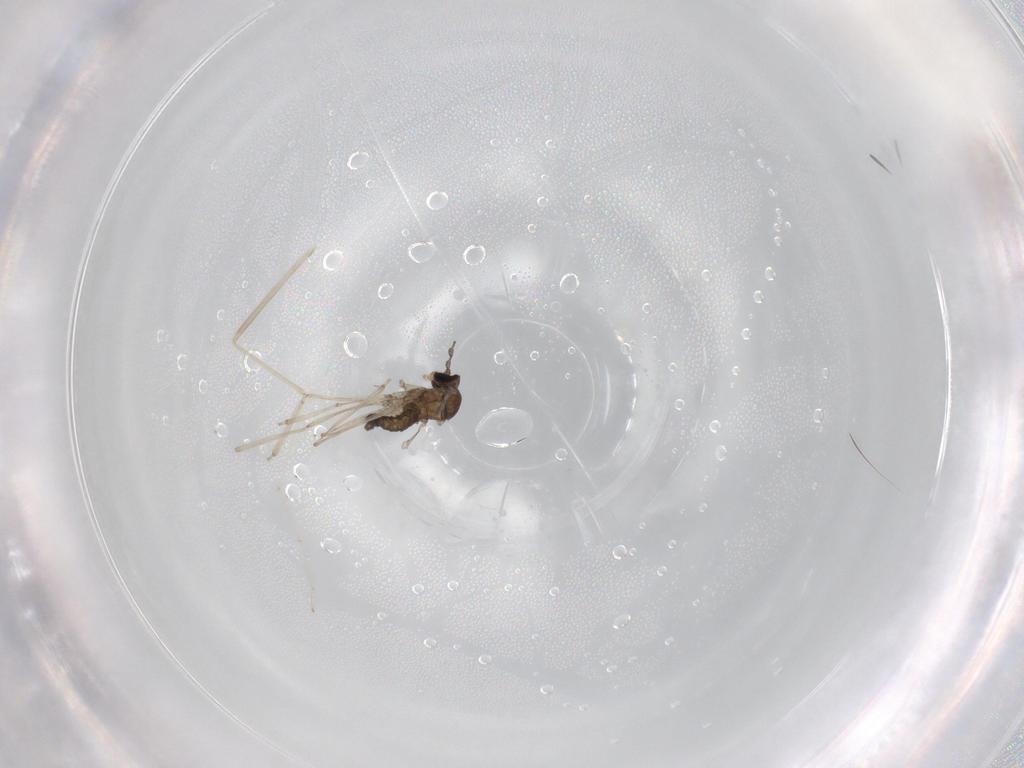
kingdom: Animalia
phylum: Arthropoda
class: Insecta
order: Diptera
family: Cecidomyiidae
